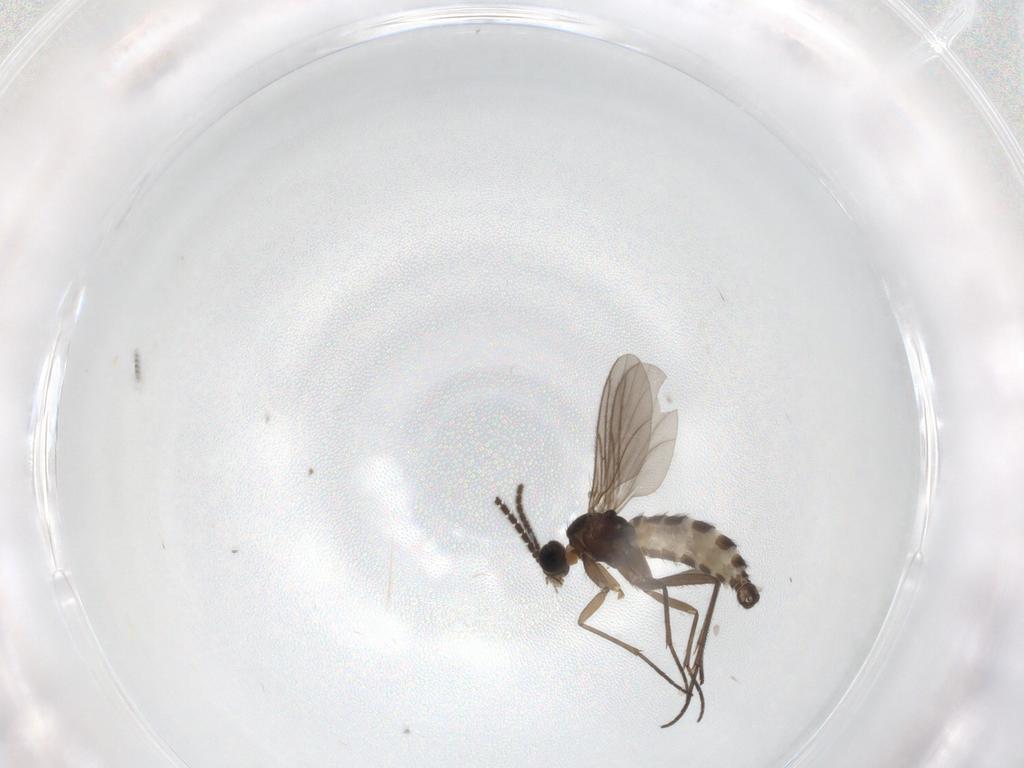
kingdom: Animalia
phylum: Arthropoda
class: Insecta
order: Diptera
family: Sciaridae
